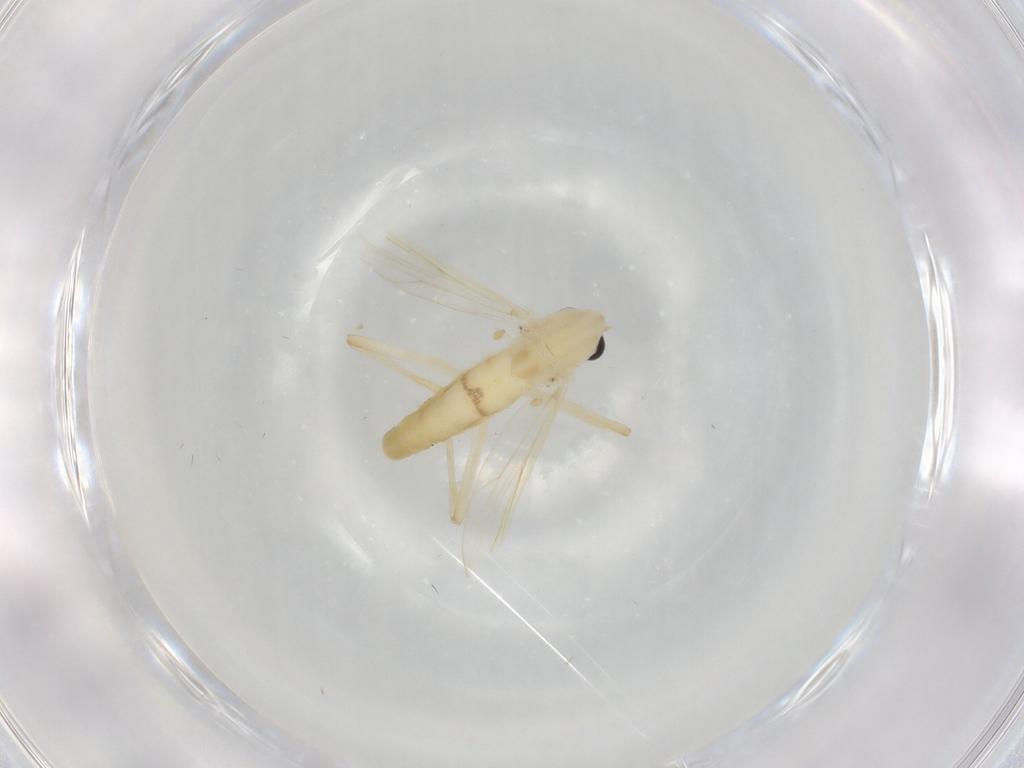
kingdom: Animalia
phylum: Arthropoda
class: Insecta
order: Diptera
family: Chironomidae
